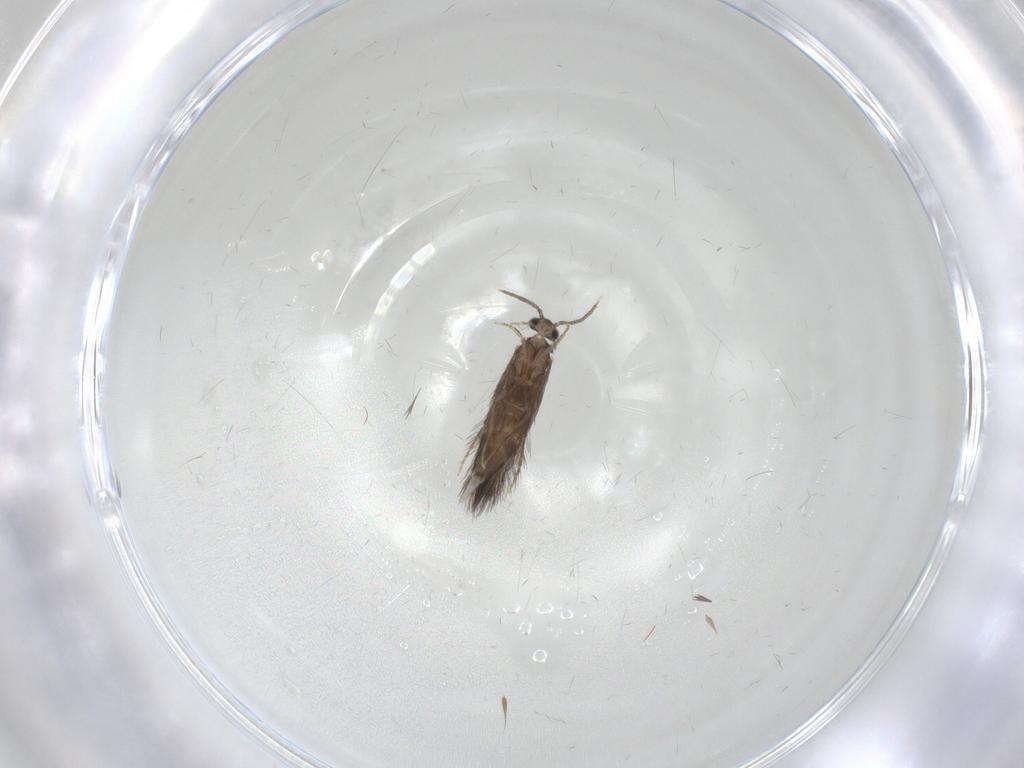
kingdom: Animalia
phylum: Arthropoda
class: Insecta
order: Trichoptera
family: Hydroptilidae
